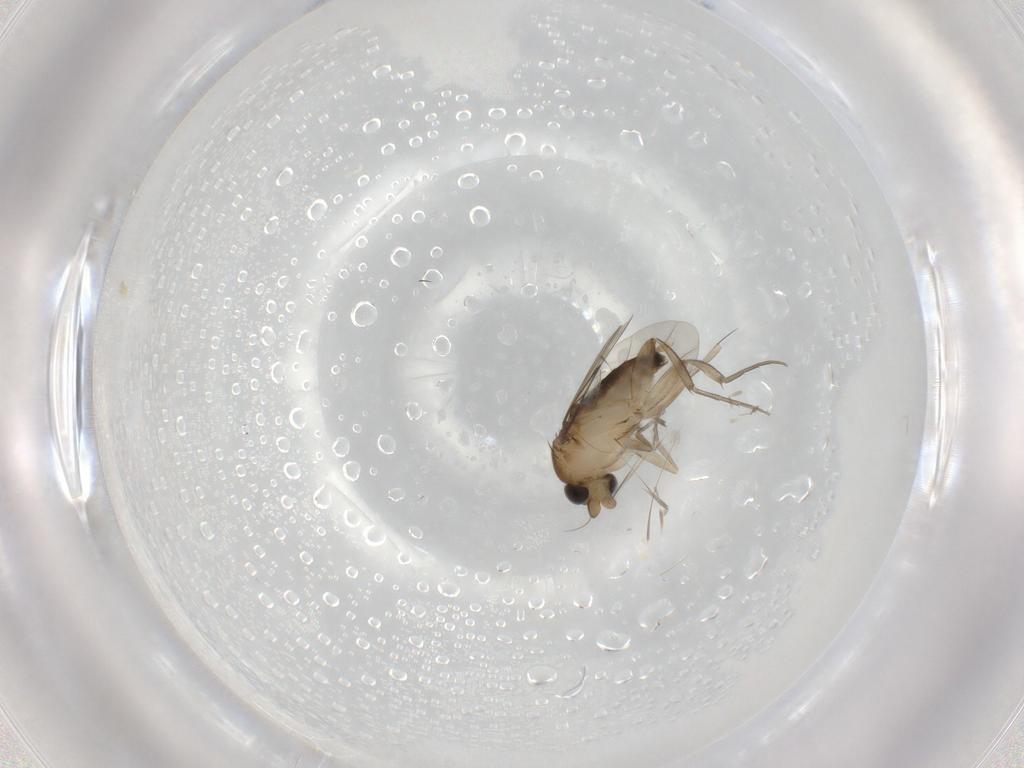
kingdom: Animalia
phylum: Arthropoda
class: Insecta
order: Diptera
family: Phoridae
